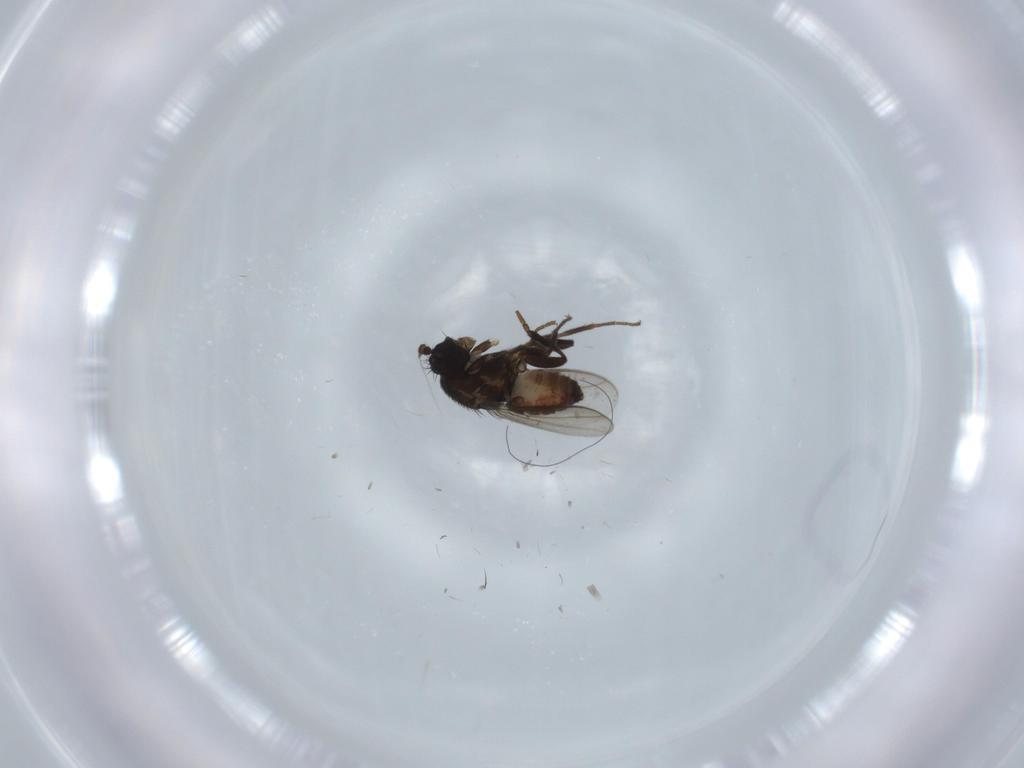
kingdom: Animalia
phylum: Arthropoda
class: Insecta
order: Diptera
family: Sphaeroceridae
